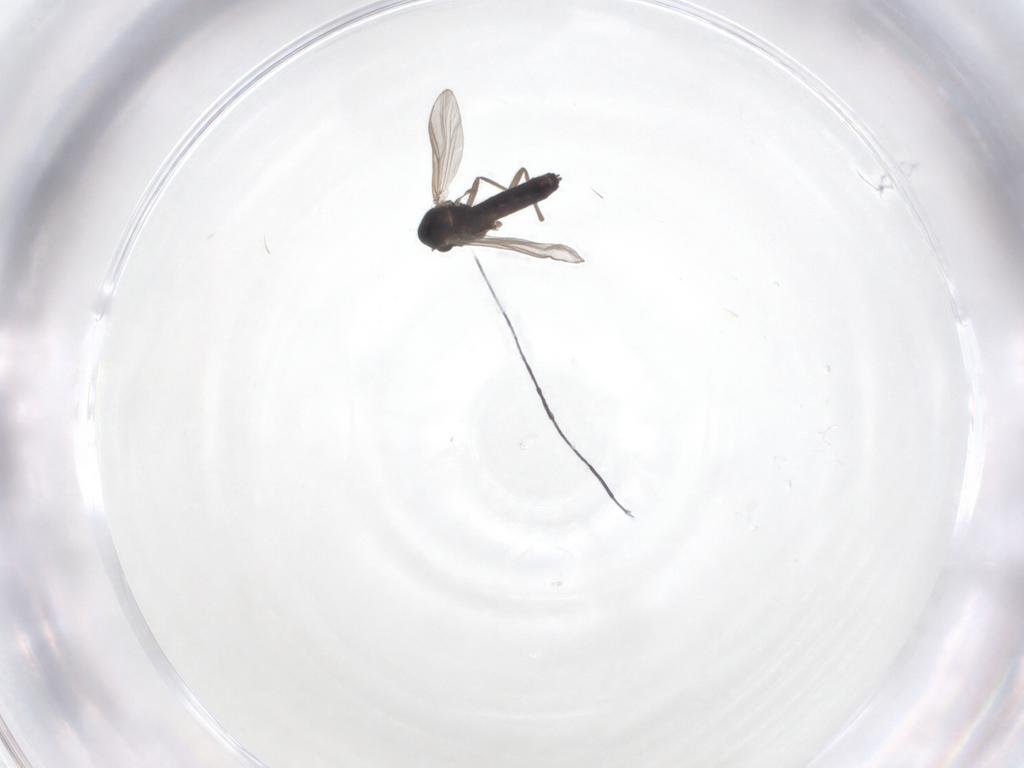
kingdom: Animalia
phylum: Arthropoda
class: Insecta
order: Diptera
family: Chironomidae
